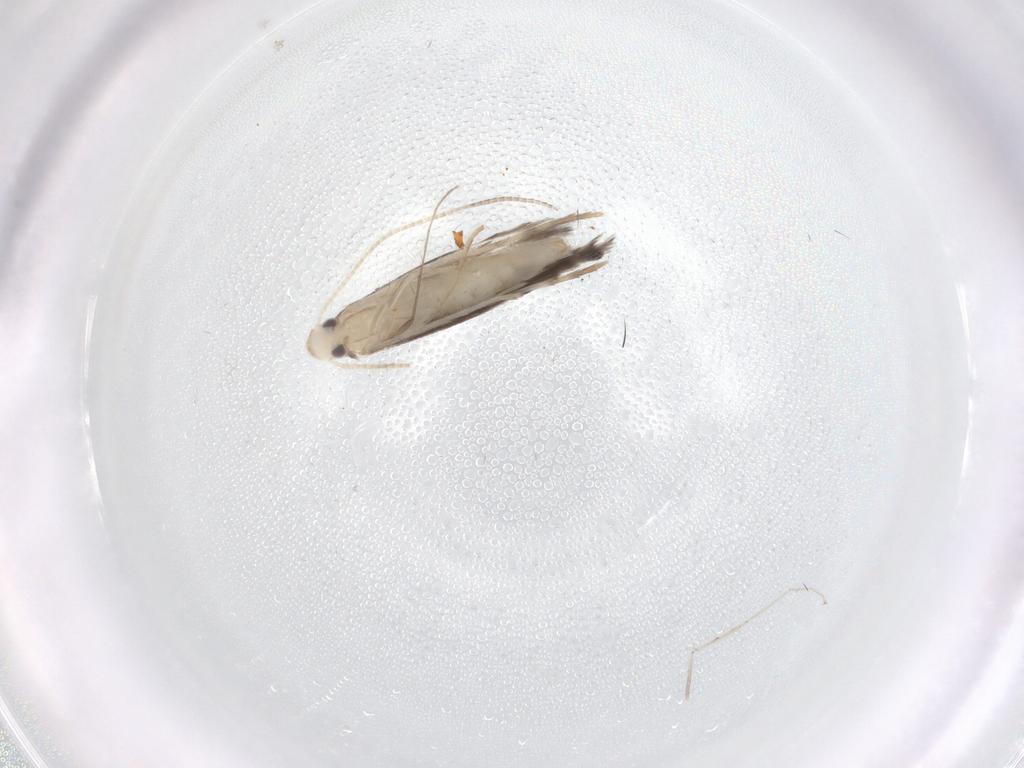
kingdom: Animalia
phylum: Arthropoda
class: Insecta
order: Lepidoptera
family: Gracillariidae
